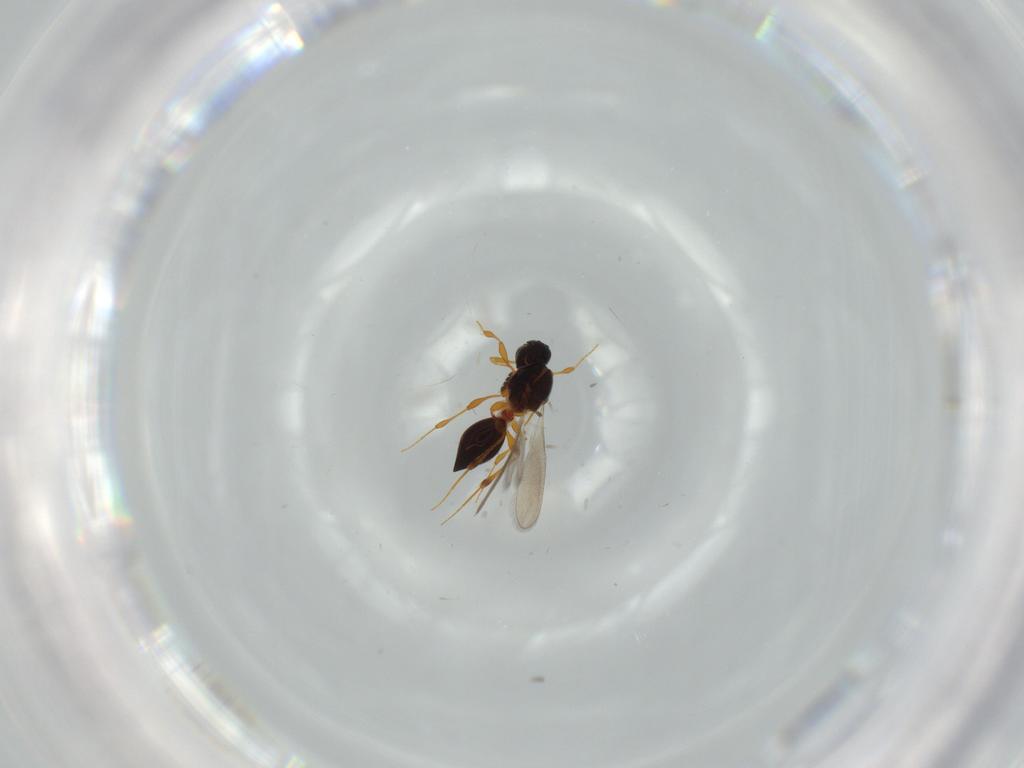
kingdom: Animalia
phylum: Arthropoda
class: Insecta
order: Hymenoptera
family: Platygastridae
